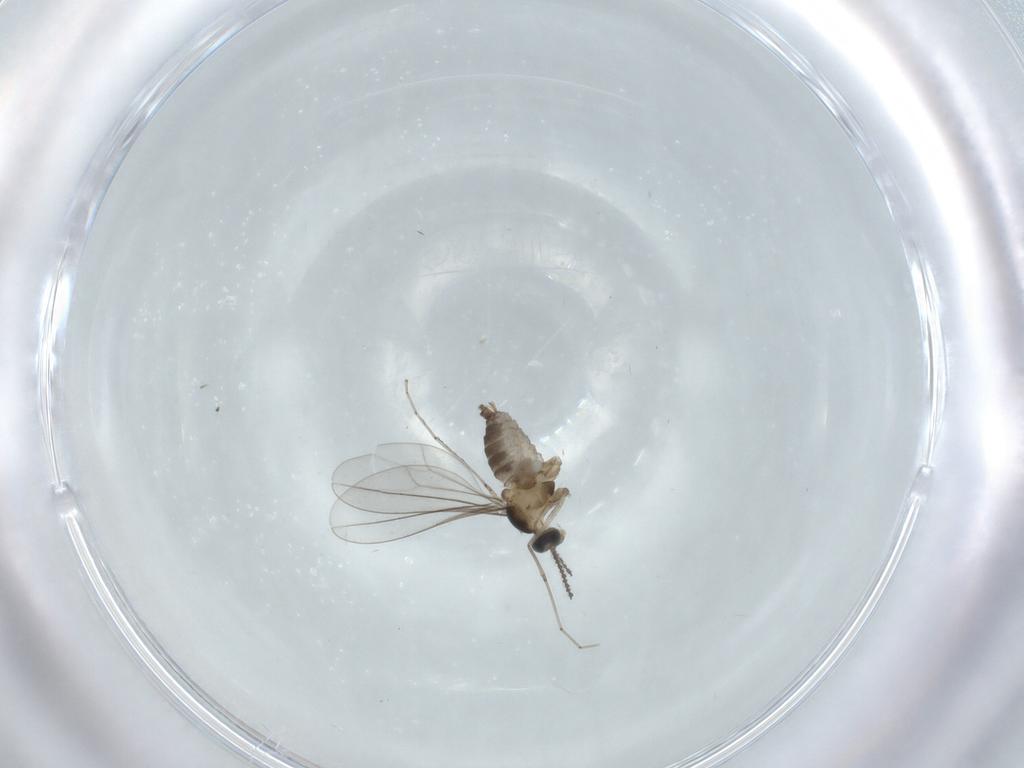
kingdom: Animalia
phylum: Arthropoda
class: Insecta
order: Diptera
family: Cecidomyiidae
